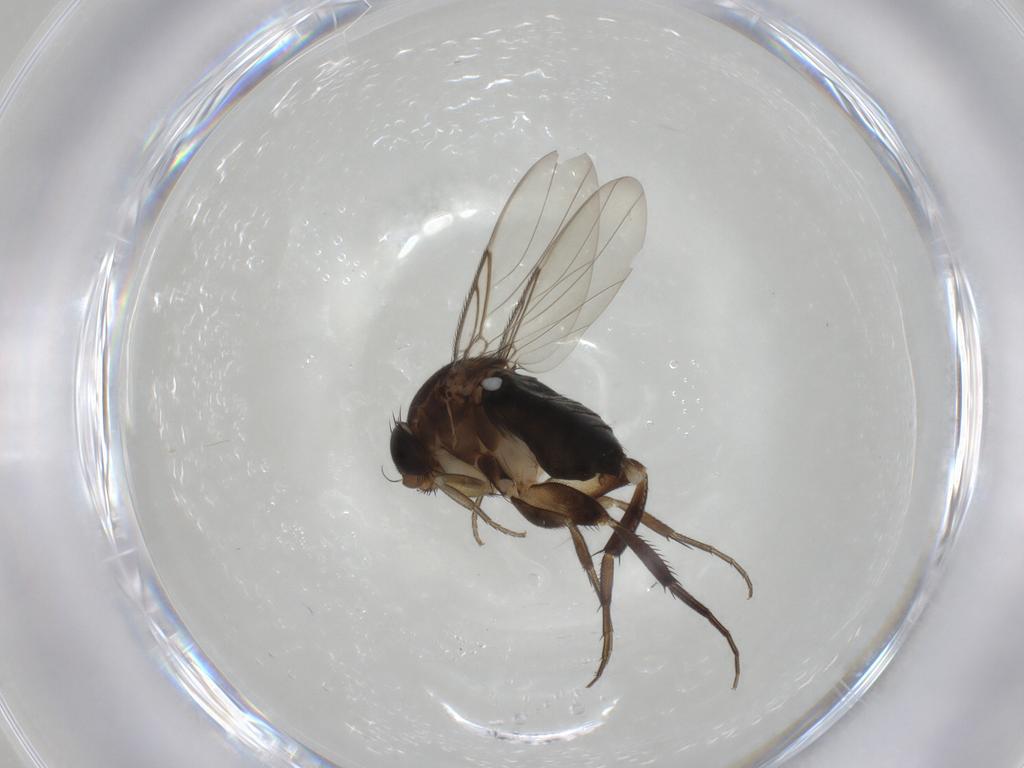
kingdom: Animalia
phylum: Arthropoda
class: Insecta
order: Diptera
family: Phoridae
